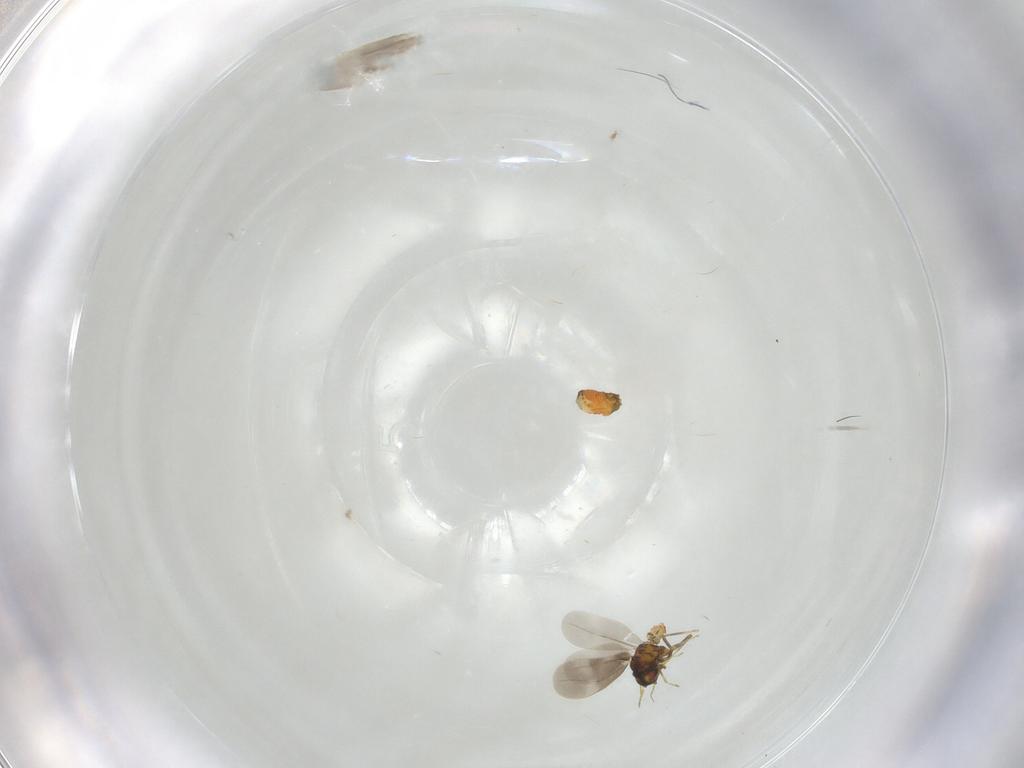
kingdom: Animalia
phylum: Arthropoda
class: Insecta
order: Hemiptera
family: Aleyrodidae
